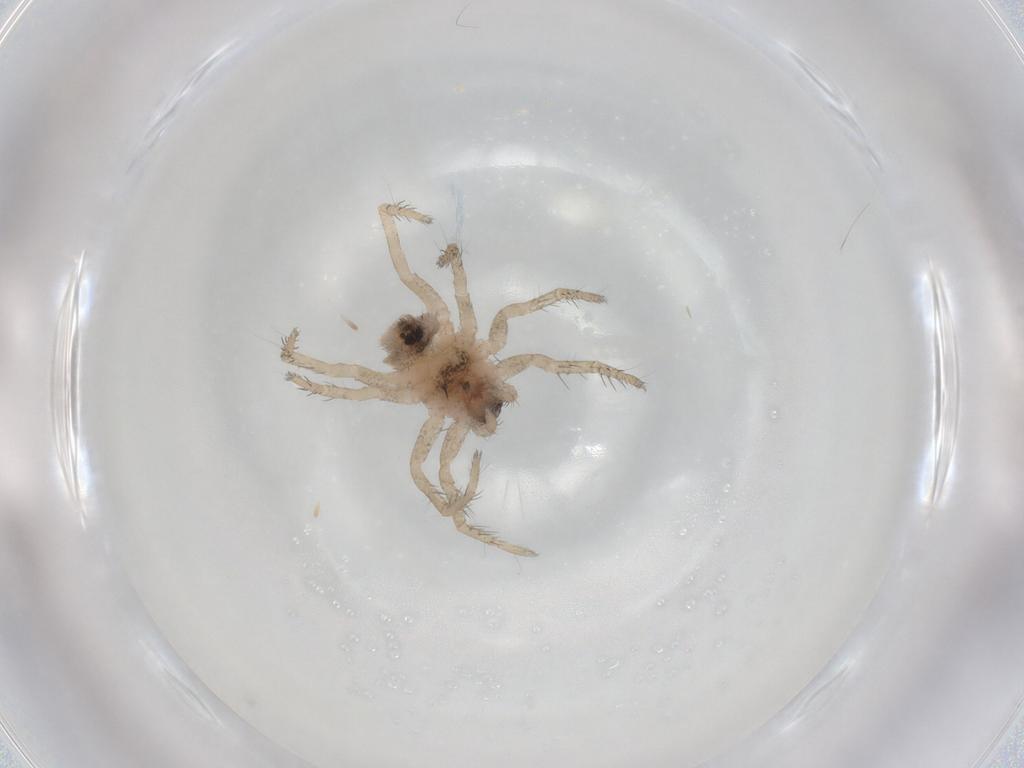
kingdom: Animalia
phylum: Arthropoda
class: Arachnida
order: Araneae
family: Lycosidae
